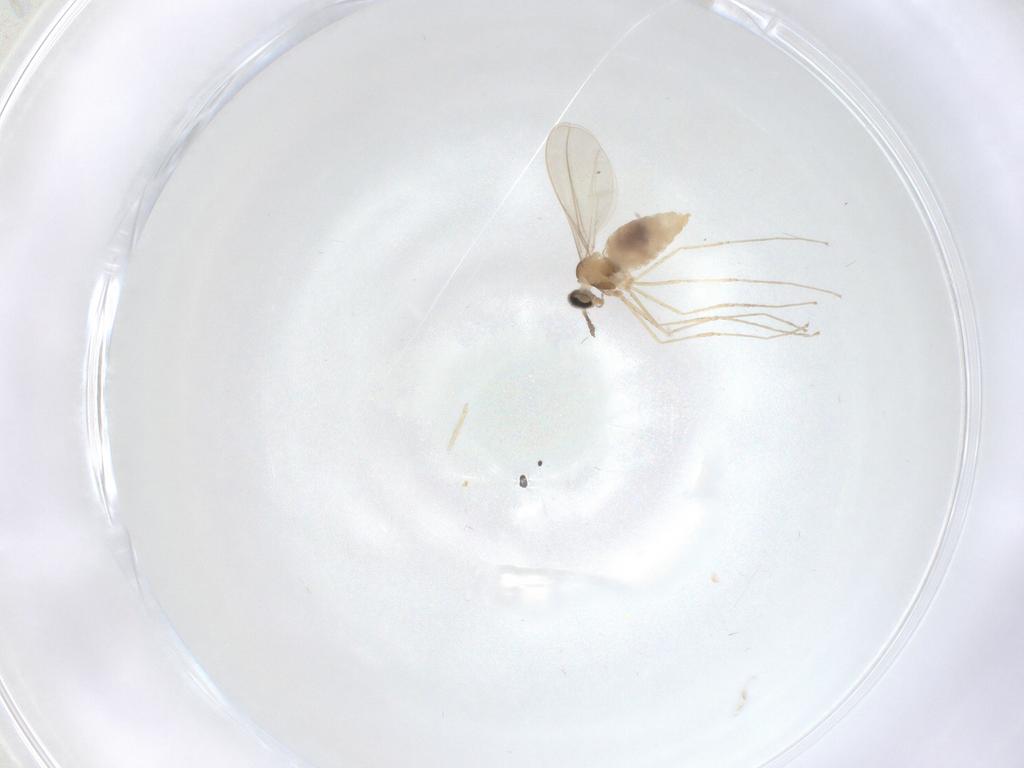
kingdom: Animalia
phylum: Arthropoda
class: Insecta
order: Diptera
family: Cecidomyiidae
